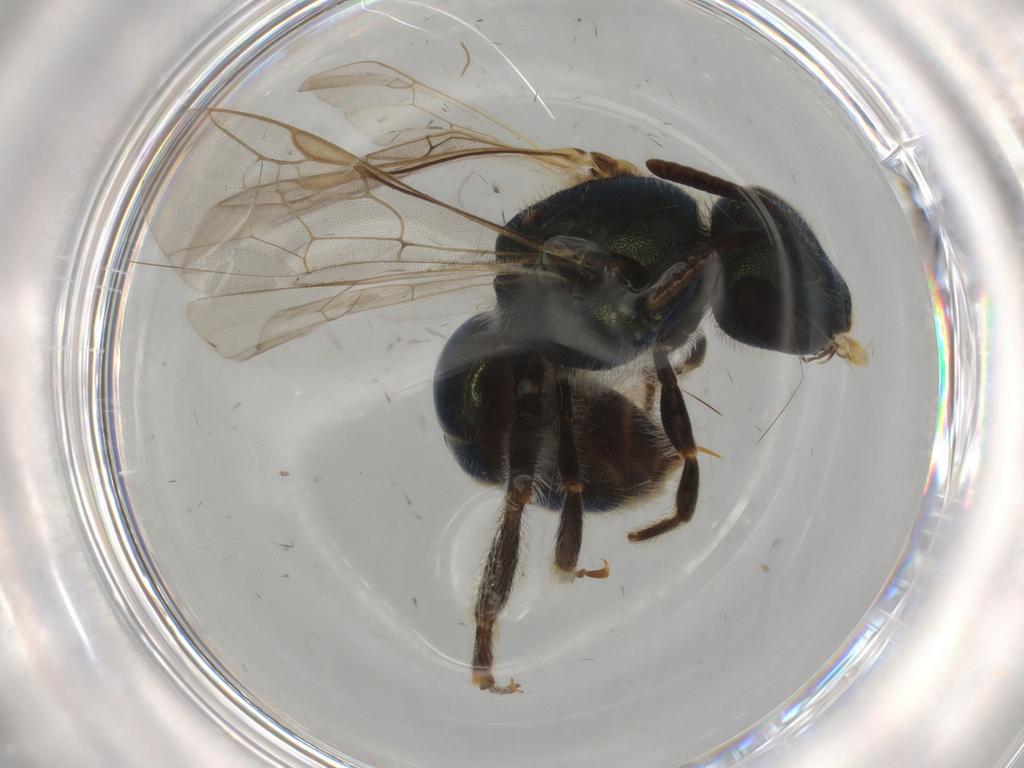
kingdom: Animalia
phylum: Arthropoda
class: Insecta
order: Hymenoptera
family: Halictidae
